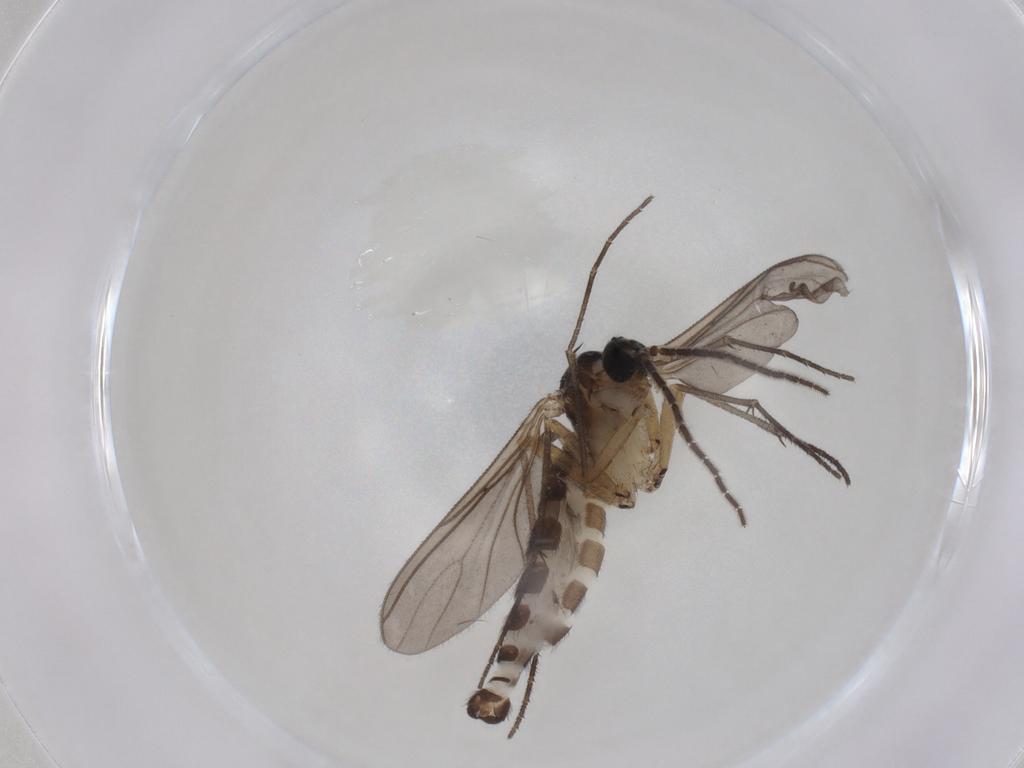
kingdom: Animalia
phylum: Arthropoda
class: Insecta
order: Diptera
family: Sciaridae
